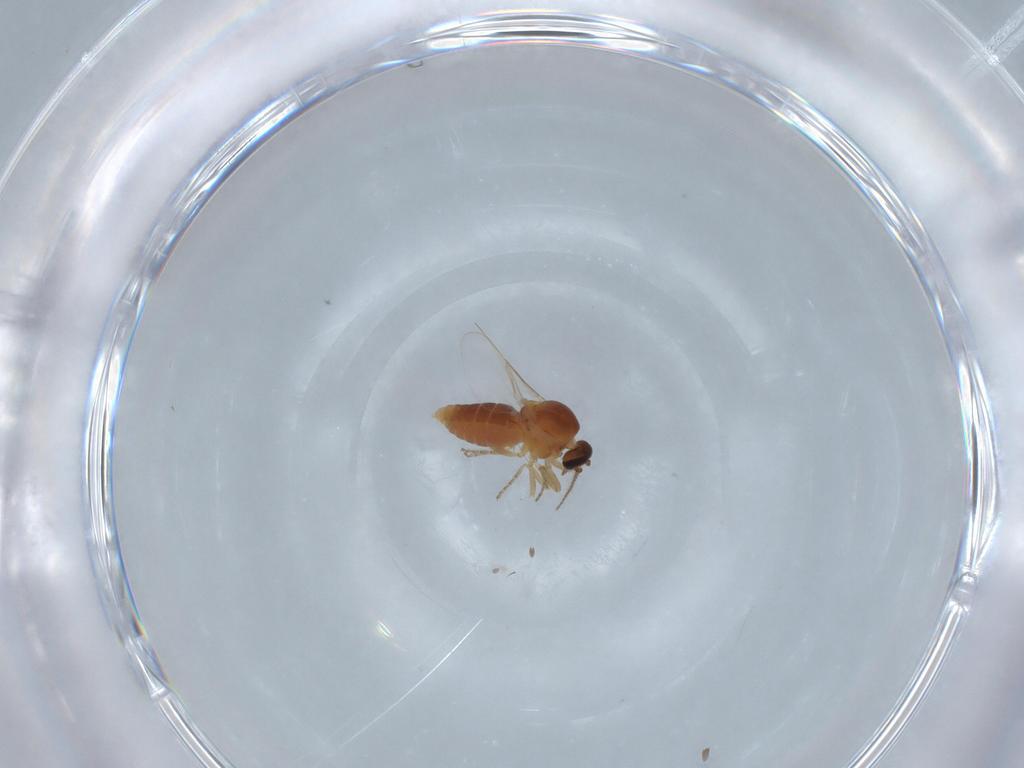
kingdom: Animalia
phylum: Arthropoda
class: Insecta
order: Diptera
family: Ceratopogonidae
